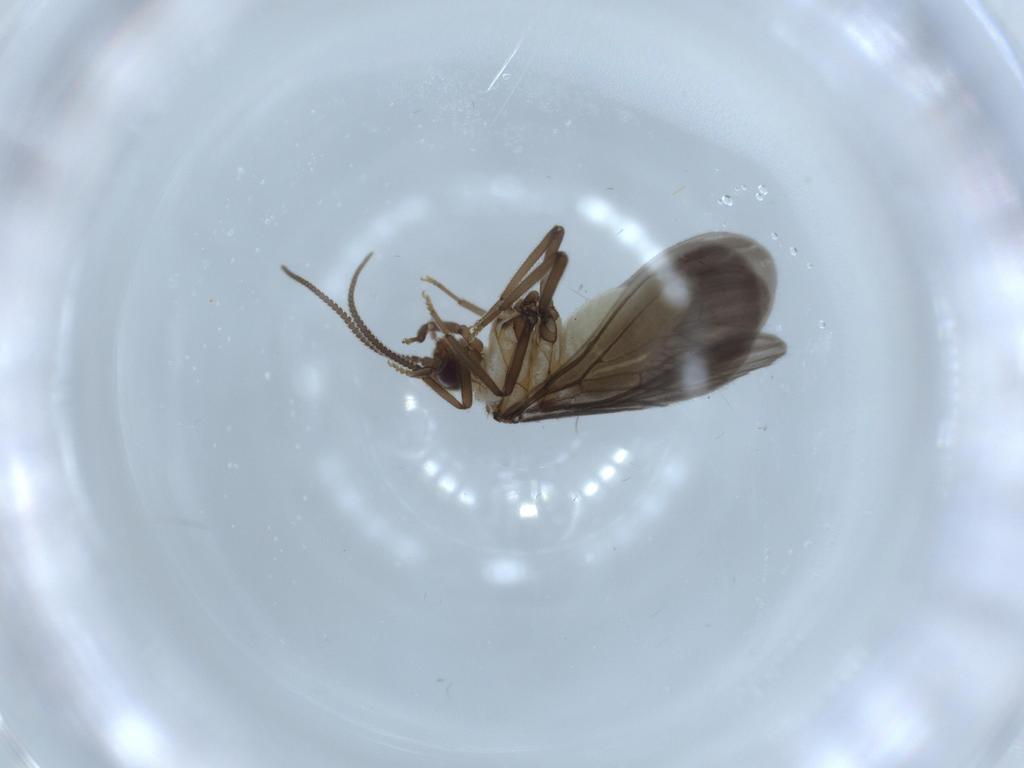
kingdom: Animalia
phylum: Arthropoda
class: Insecta
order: Neuroptera
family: Coniopterygidae
